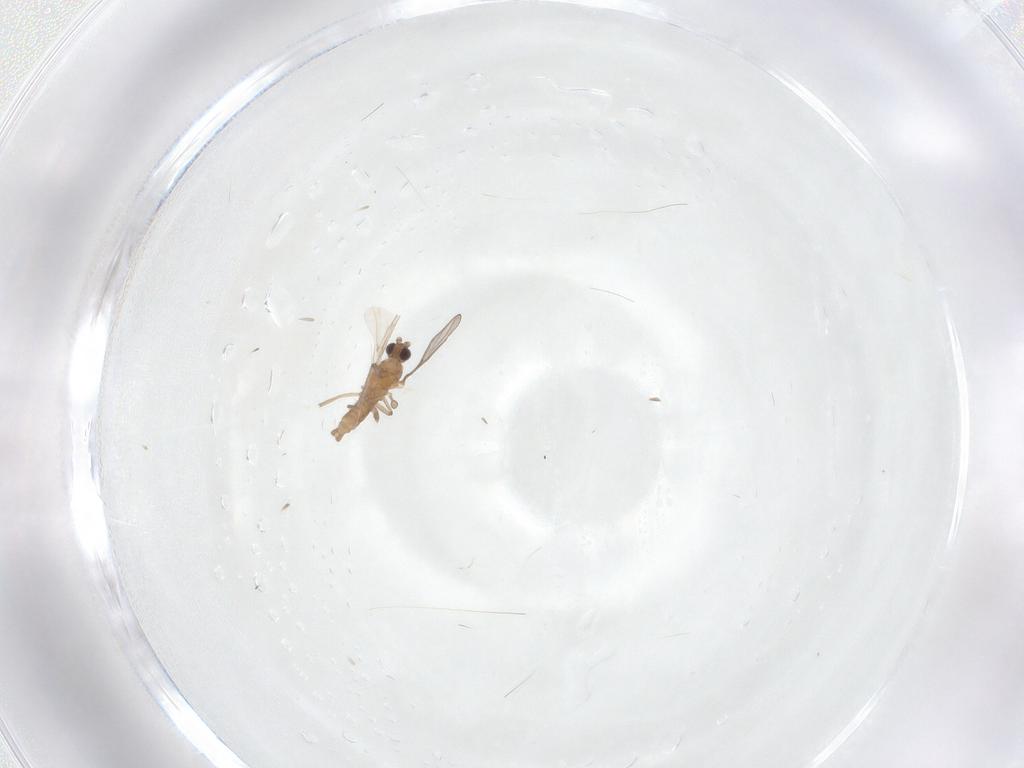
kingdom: Animalia
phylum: Arthropoda
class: Insecta
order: Diptera
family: Cecidomyiidae
